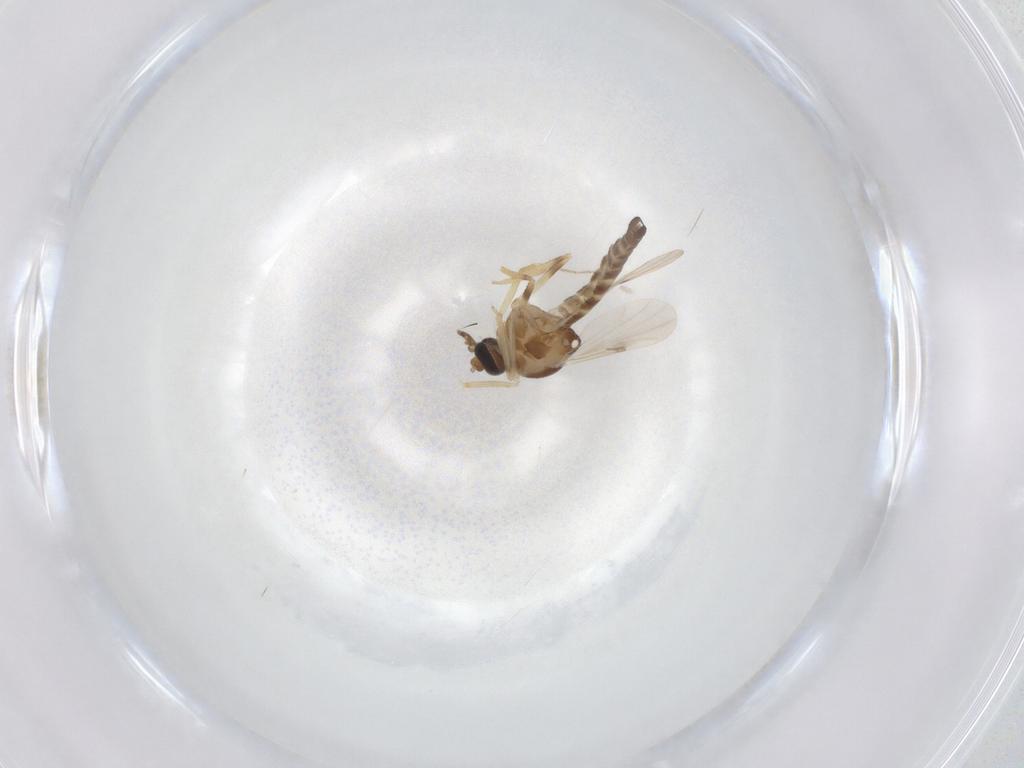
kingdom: Animalia
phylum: Arthropoda
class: Insecta
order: Diptera
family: Ceratopogonidae
